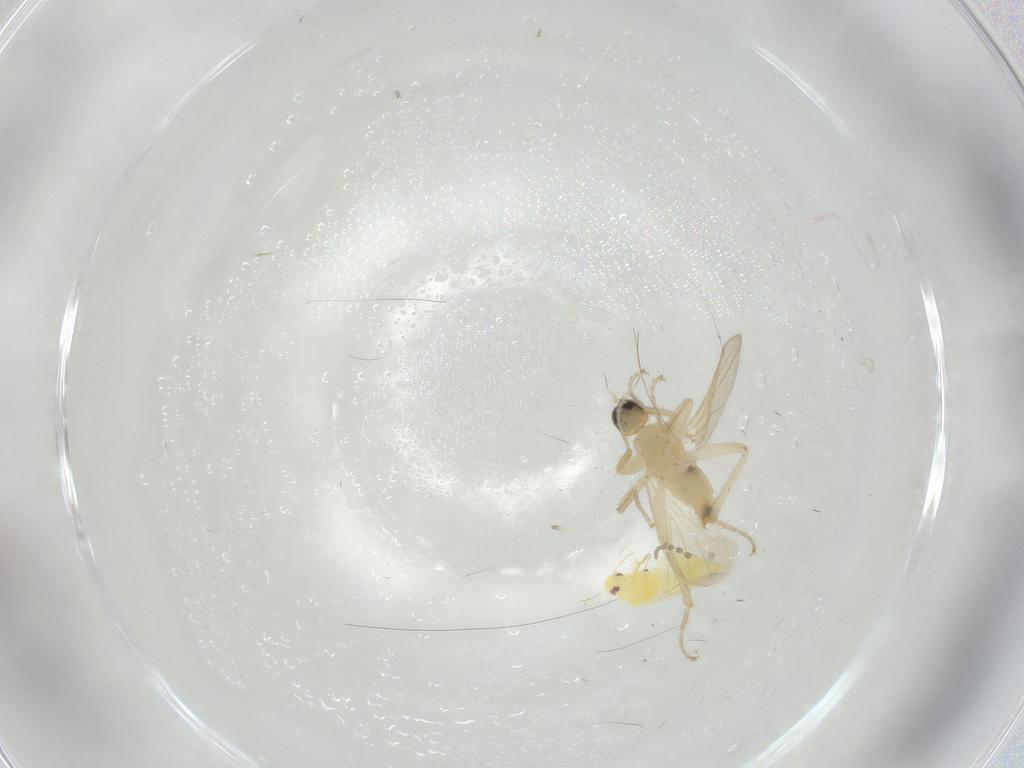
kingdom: Animalia
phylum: Arthropoda
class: Insecta
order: Diptera
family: Hybotidae
